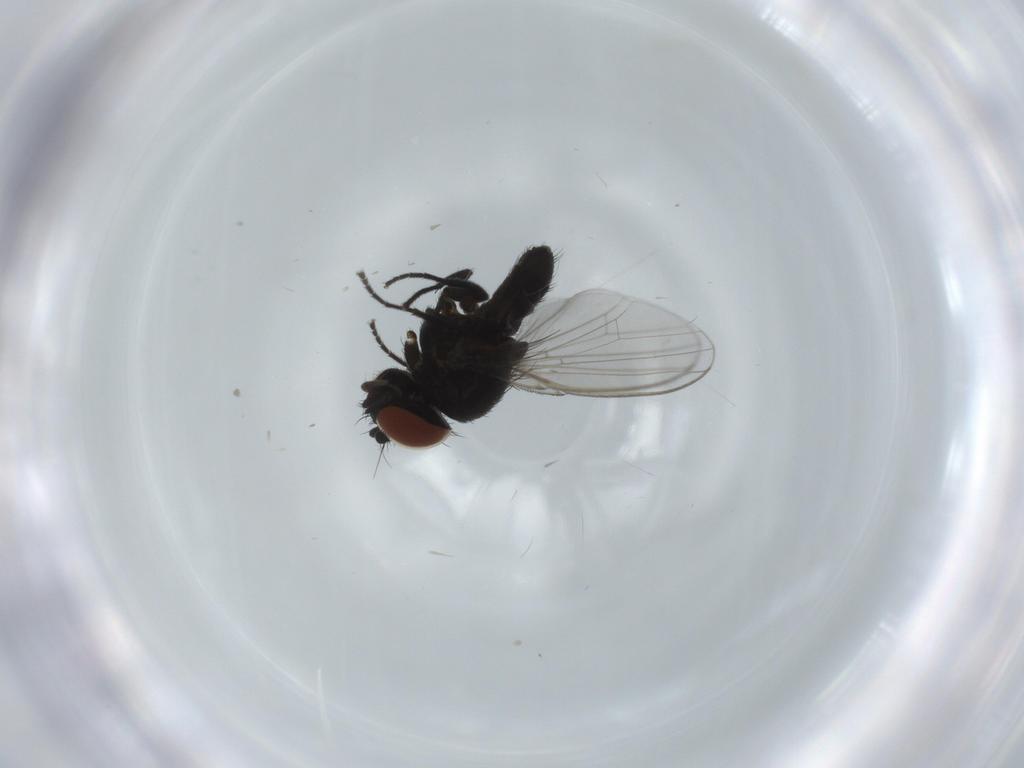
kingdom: Animalia
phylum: Arthropoda
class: Insecta
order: Diptera
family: Milichiidae
